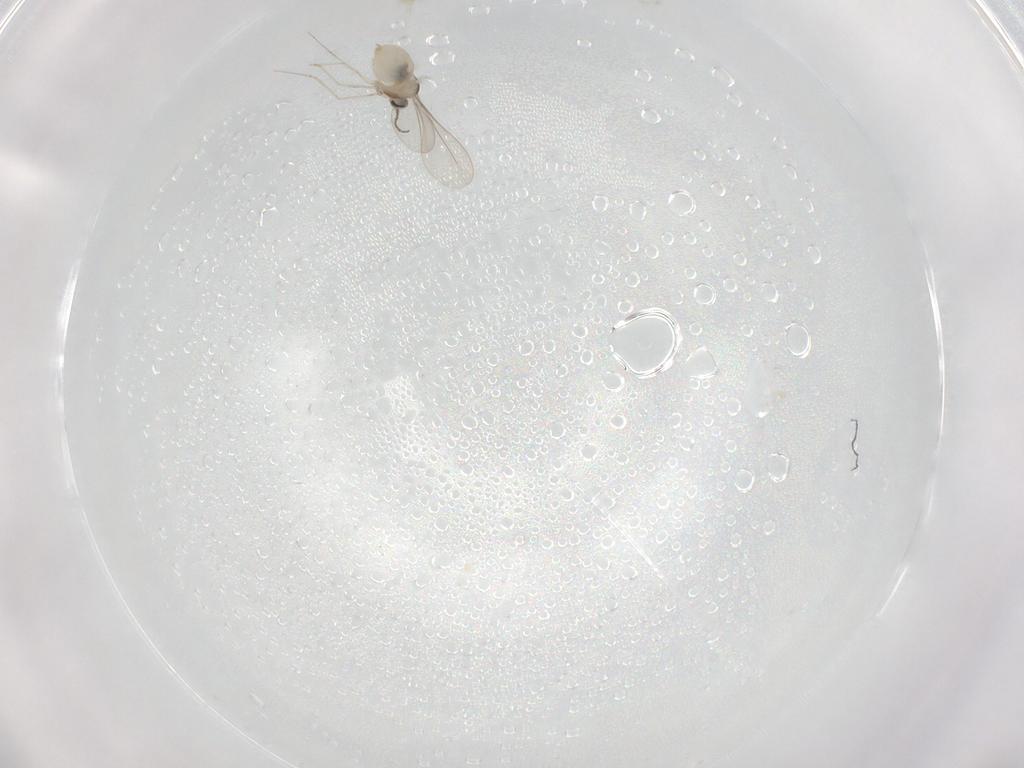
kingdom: Animalia
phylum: Arthropoda
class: Insecta
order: Diptera
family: Cecidomyiidae
